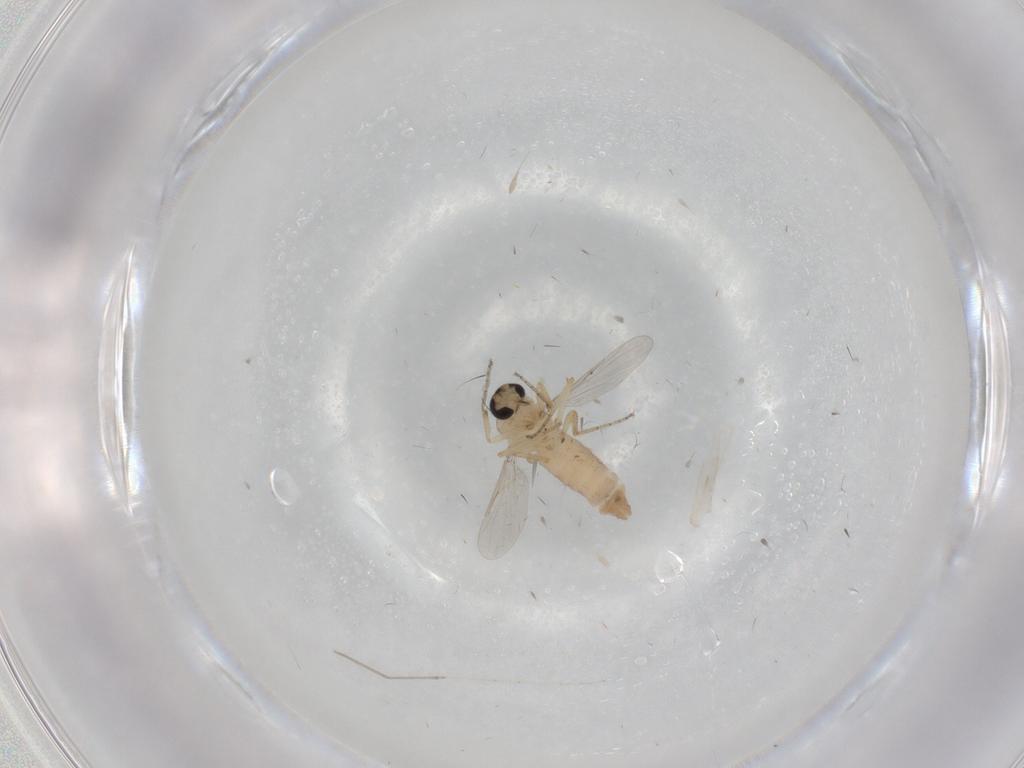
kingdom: Animalia
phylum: Arthropoda
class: Insecta
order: Diptera
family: Ceratopogonidae
